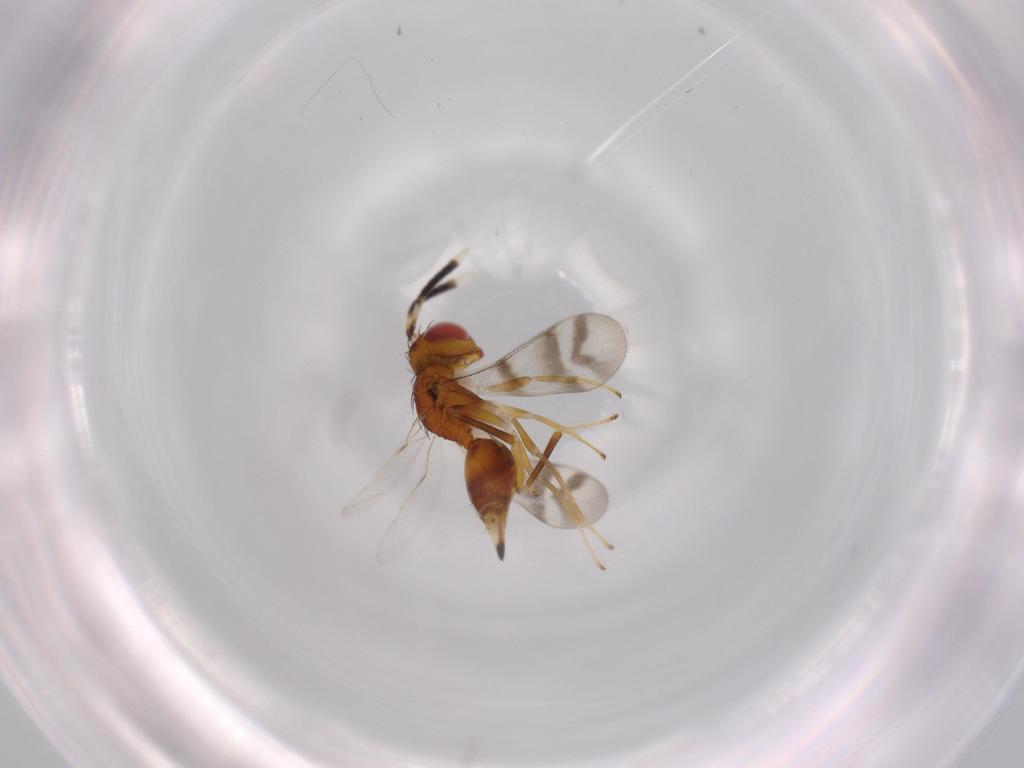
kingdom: Animalia
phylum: Arthropoda
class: Insecta
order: Hymenoptera
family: Diparidae
